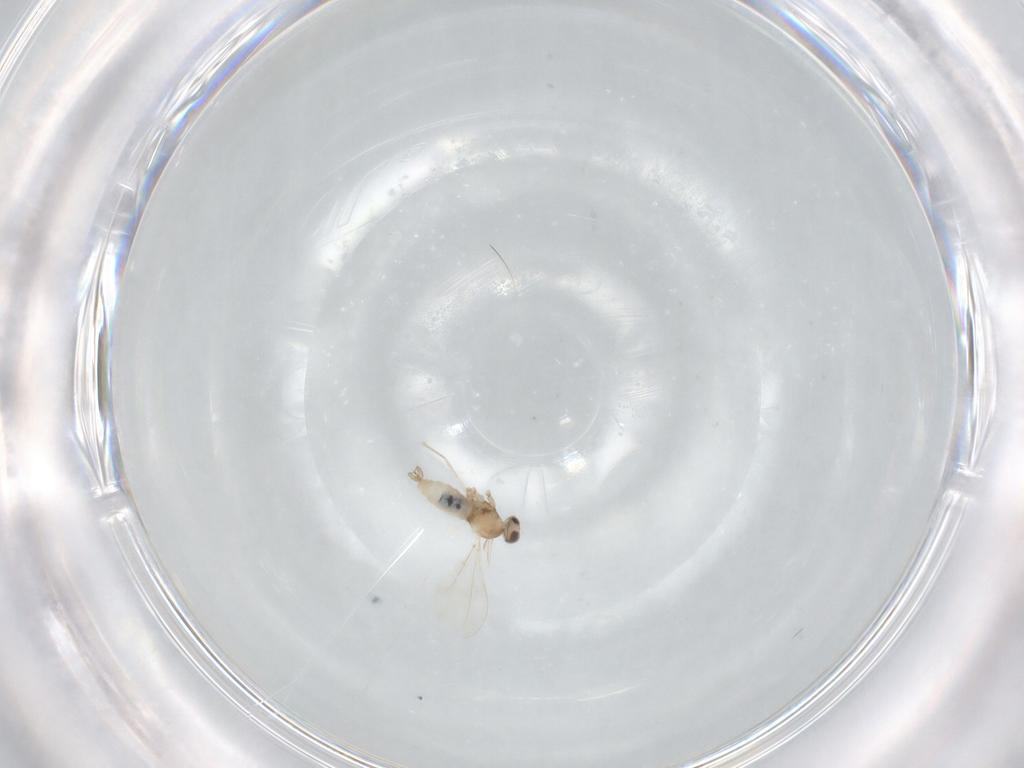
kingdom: Animalia
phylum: Arthropoda
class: Insecta
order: Diptera
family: Cecidomyiidae
